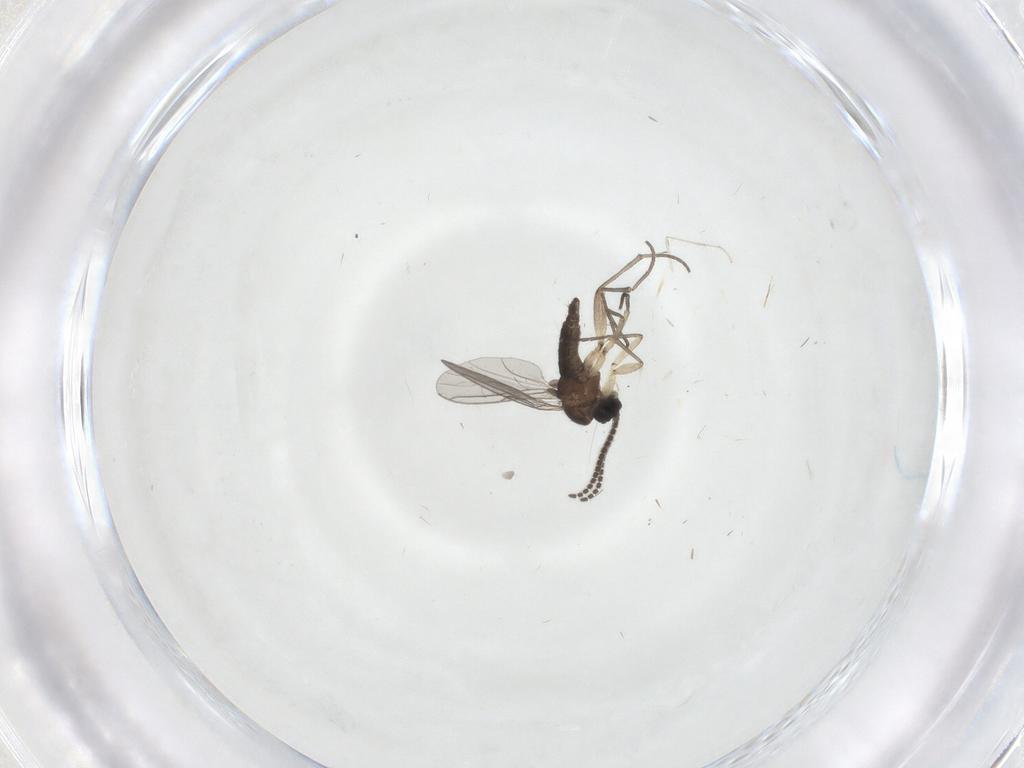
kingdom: Animalia
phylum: Arthropoda
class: Insecta
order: Diptera
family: Sciaridae
